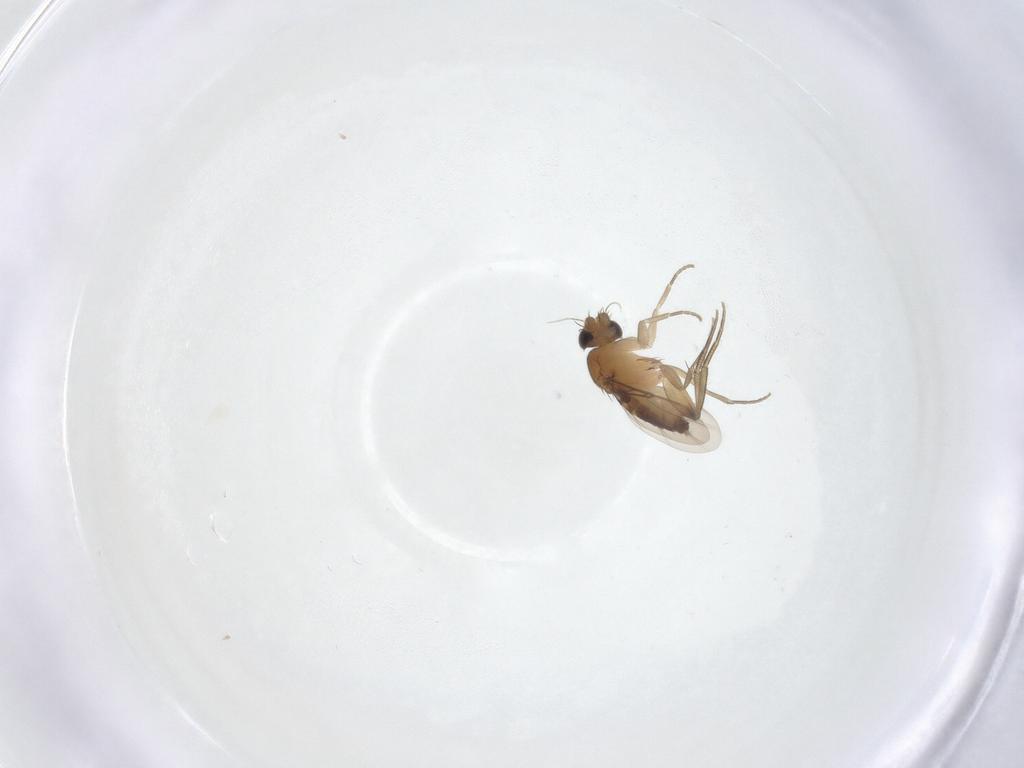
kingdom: Animalia
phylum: Arthropoda
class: Insecta
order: Diptera
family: Phoridae
